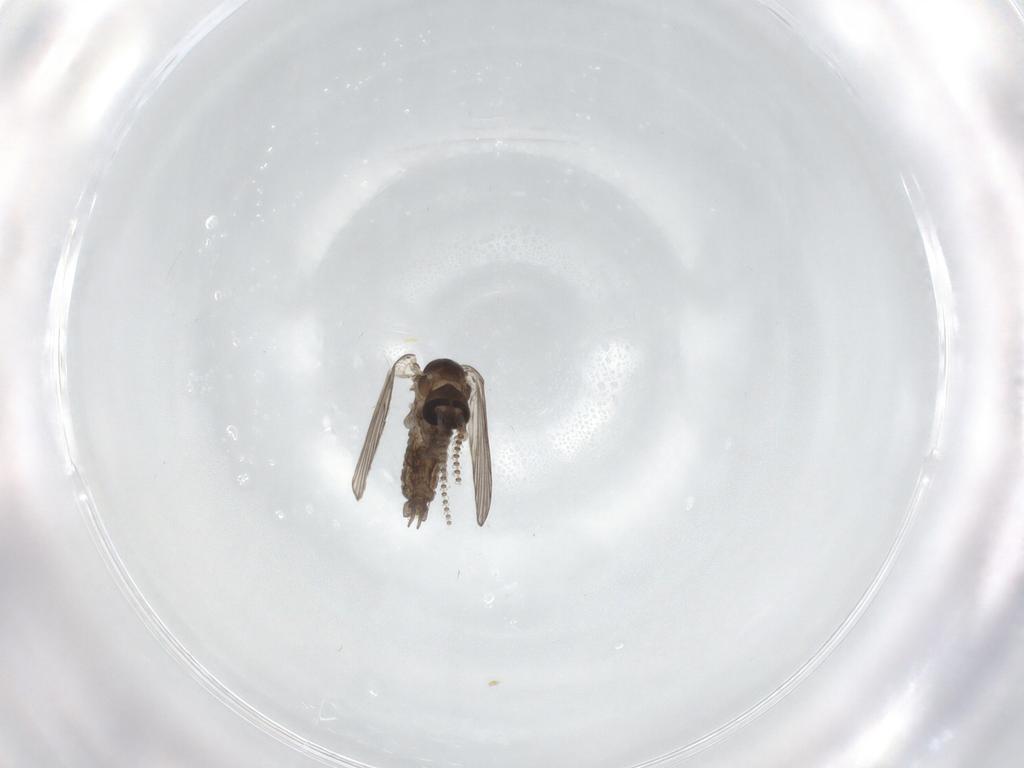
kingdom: Animalia
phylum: Arthropoda
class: Insecta
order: Diptera
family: Psychodidae
